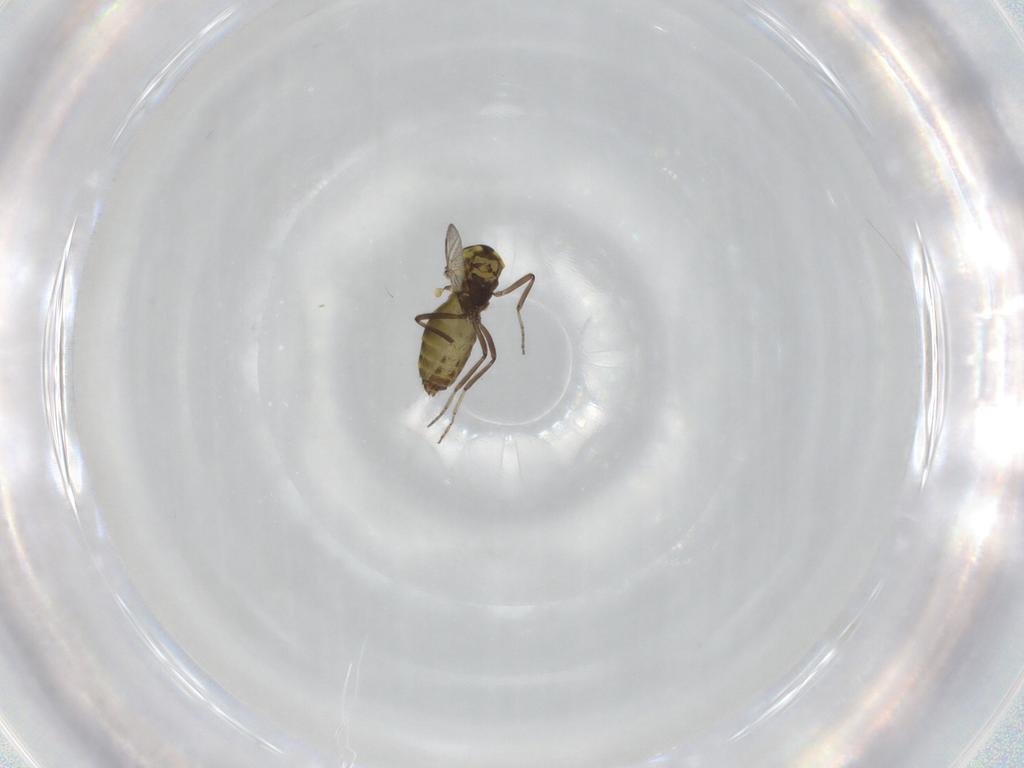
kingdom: Animalia
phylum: Arthropoda
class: Insecta
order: Diptera
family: Ceratopogonidae
